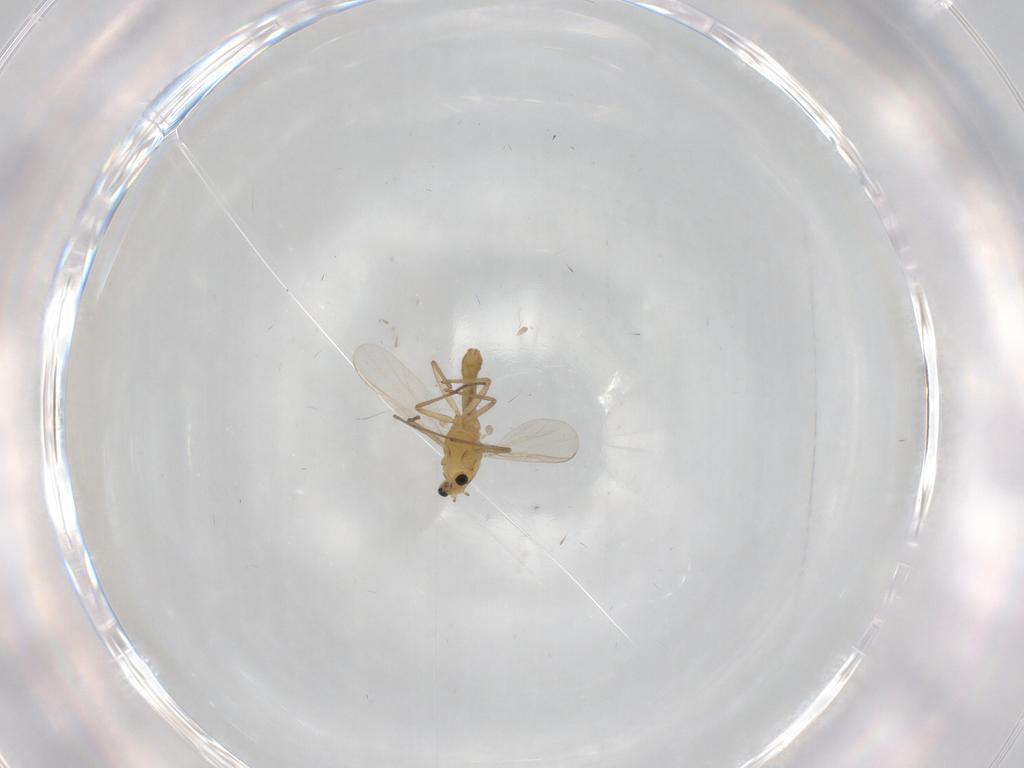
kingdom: Animalia
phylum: Arthropoda
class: Insecta
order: Diptera
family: Chironomidae
